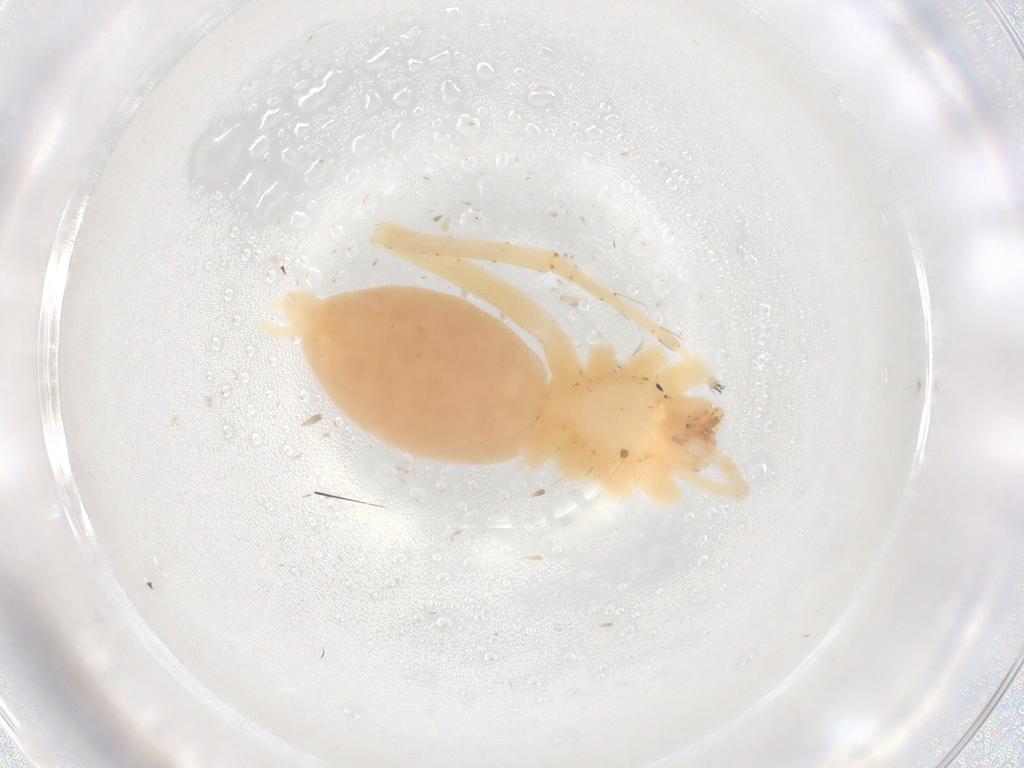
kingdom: Animalia
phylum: Arthropoda
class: Arachnida
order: Araneae
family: Anyphaenidae
